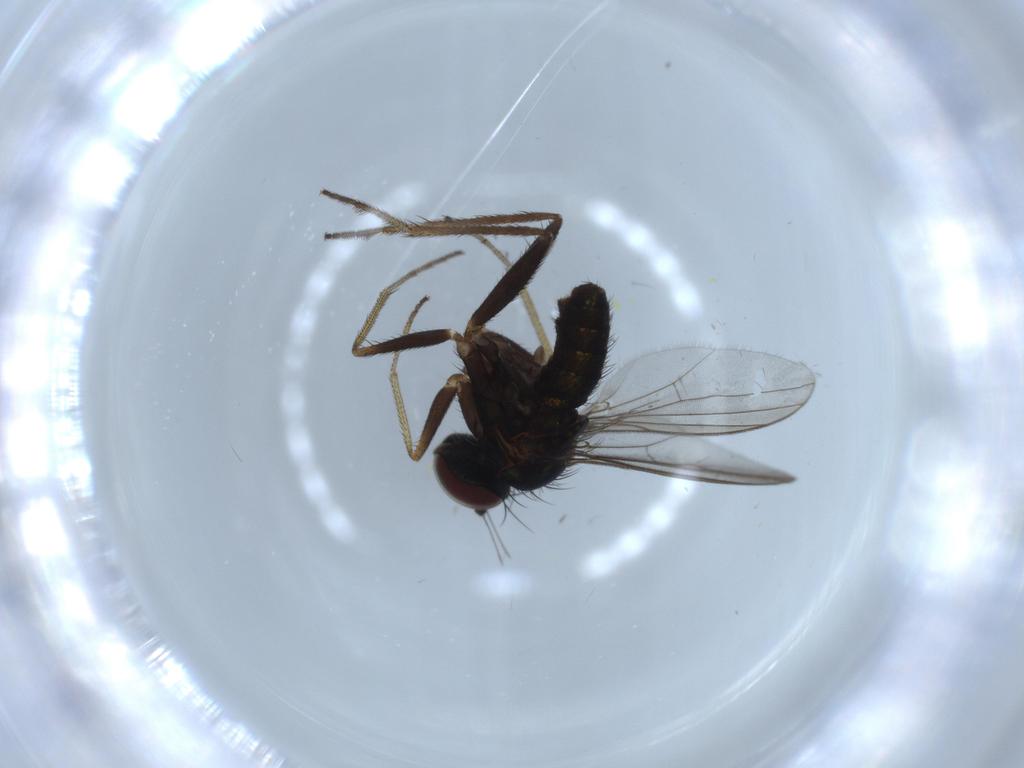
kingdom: Animalia
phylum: Arthropoda
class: Insecta
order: Diptera
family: Dolichopodidae
